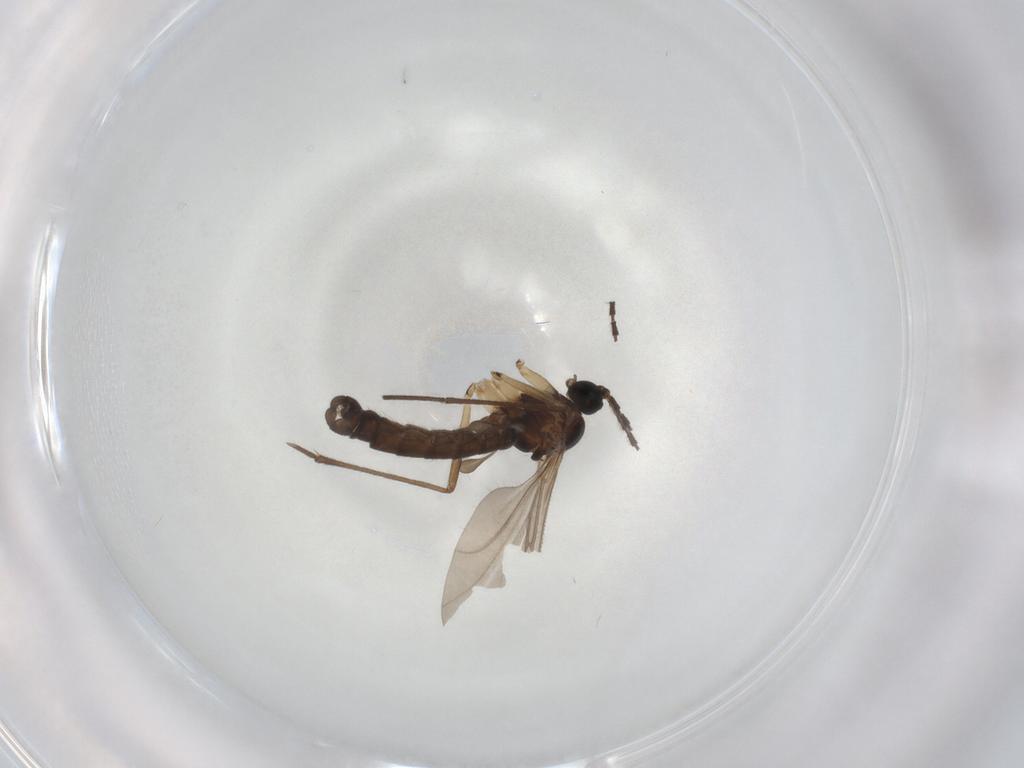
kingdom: Animalia
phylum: Arthropoda
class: Insecta
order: Diptera
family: Sciaridae
